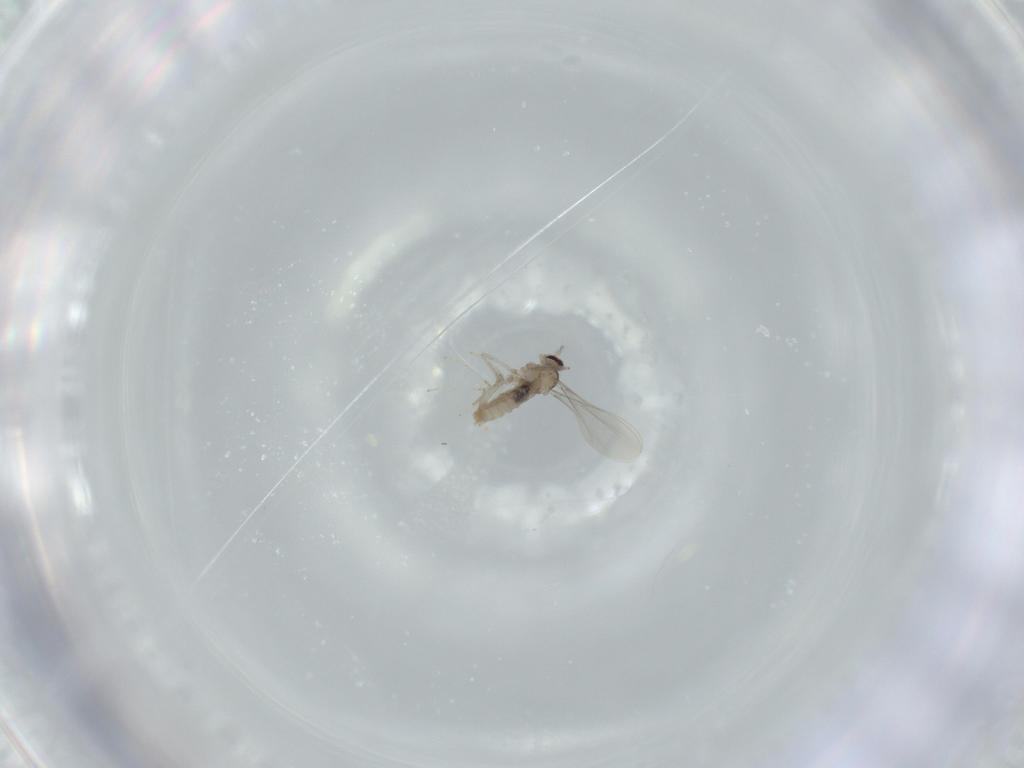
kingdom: Animalia
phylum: Arthropoda
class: Insecta
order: Diptera
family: Cecidomyiidae
